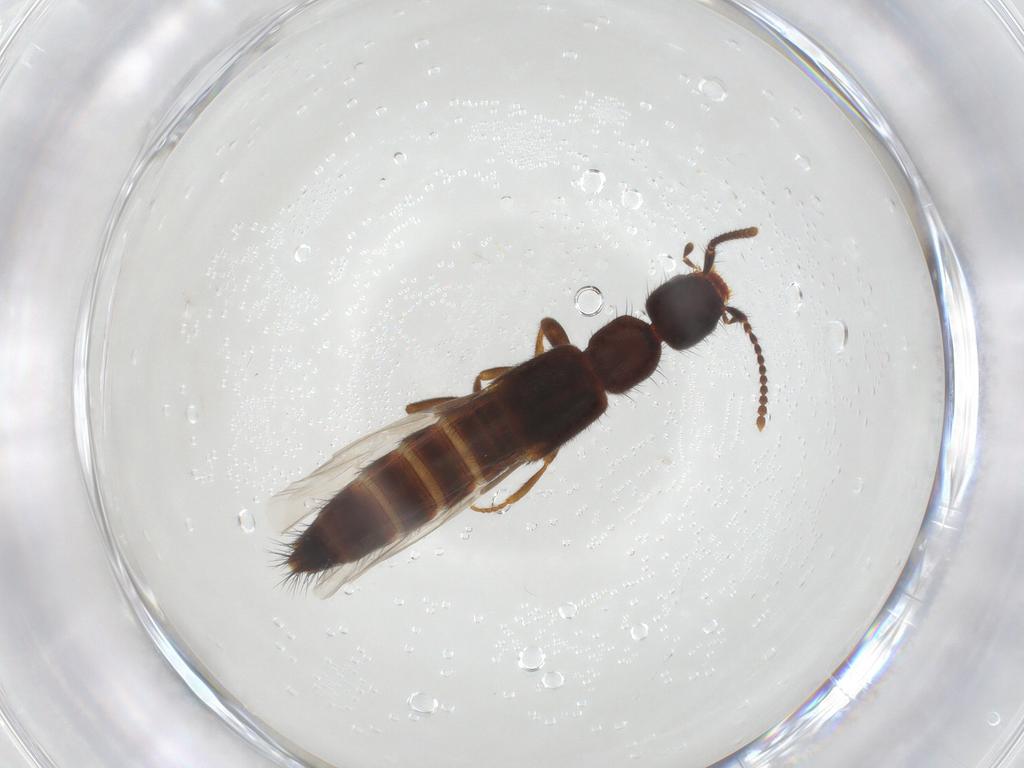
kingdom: Animalia
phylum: Arthropoda
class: Insecta
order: Coleoptera
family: Staphylinidae
